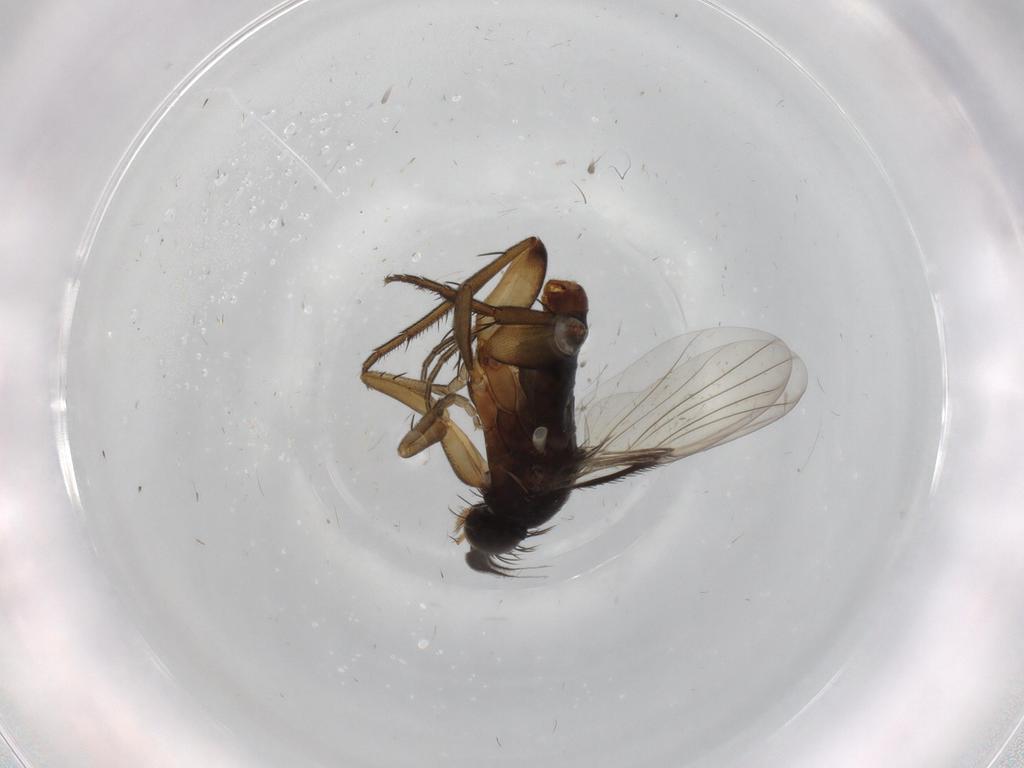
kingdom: Animalia
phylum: Arthropoda
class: Insecta
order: Diptera
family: Phoridae
